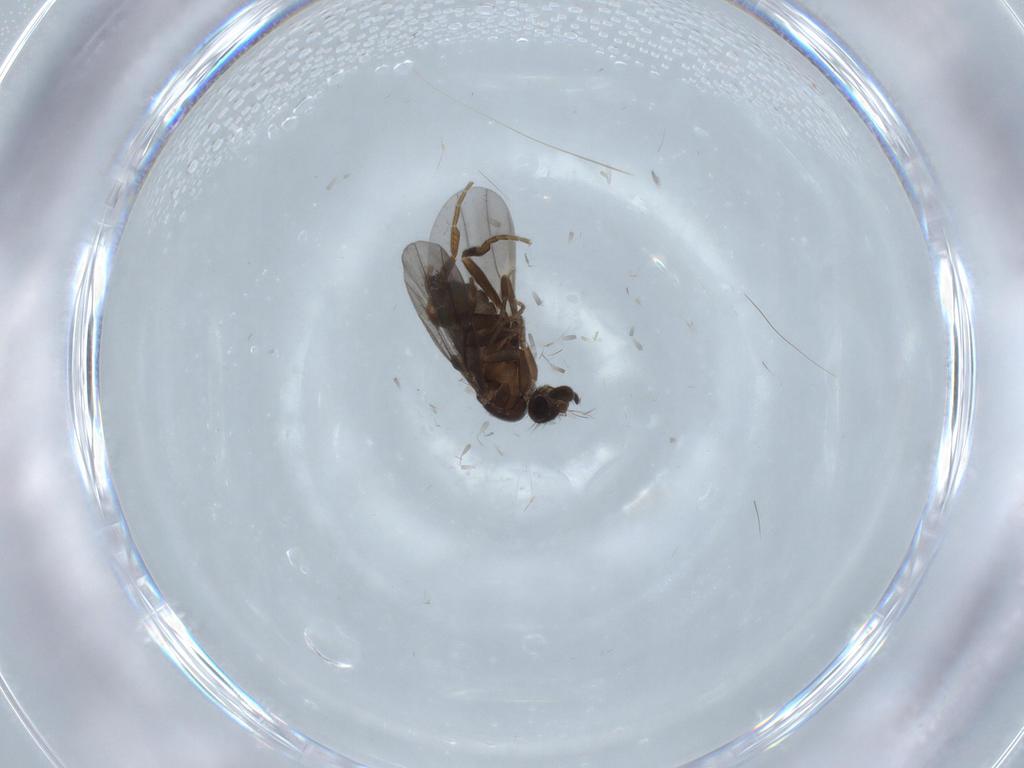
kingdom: Animalia
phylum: Arthropoda
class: Insecta
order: Diptera
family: Phoridae
